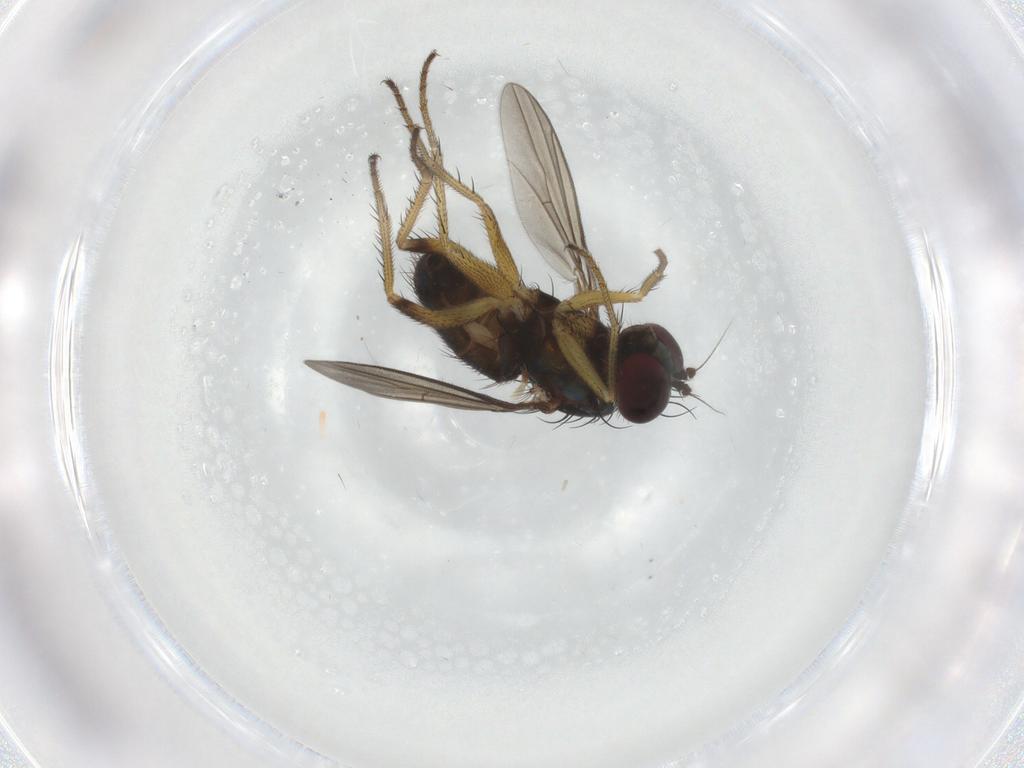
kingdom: Animalia
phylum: Arthropoda
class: Insecta
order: Diptera
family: Dolichopodidae
